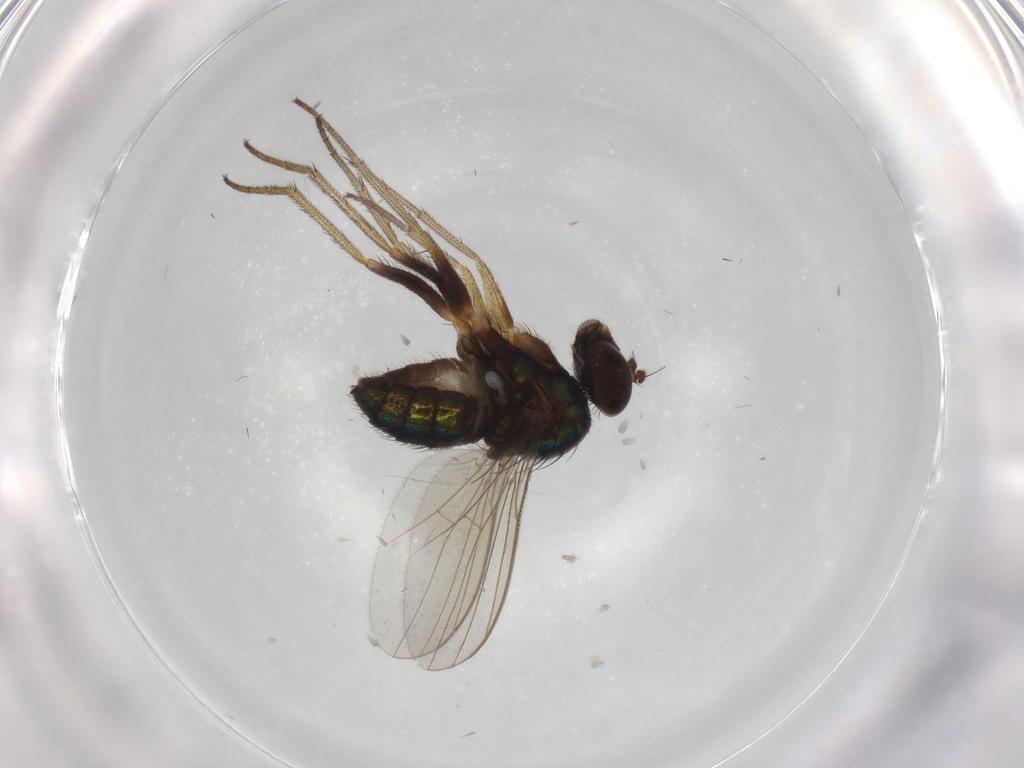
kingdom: Animalia
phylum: Arthropoda
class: Insecta
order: Diptera
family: Dolichopodidae
